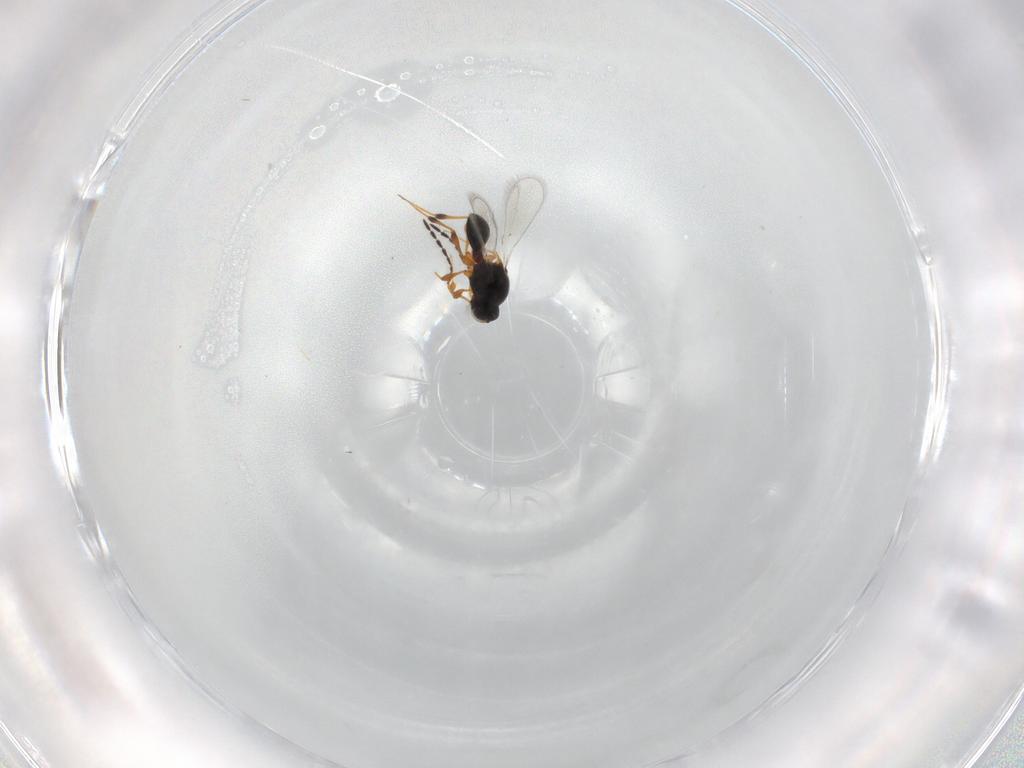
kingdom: Animalia
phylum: Arthropoda
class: Insecta
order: Hymenoptera
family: Platygastridae
